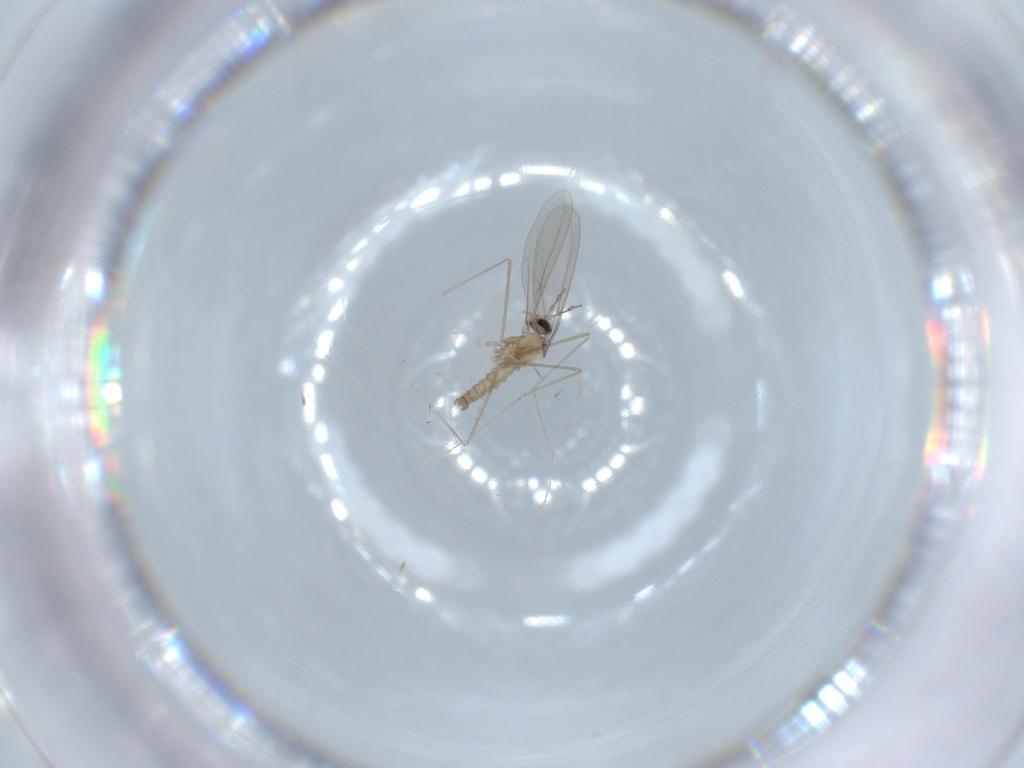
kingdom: Animalia
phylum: Arthropoda
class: Insecta
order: Diptera
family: Cecidomyiidae
